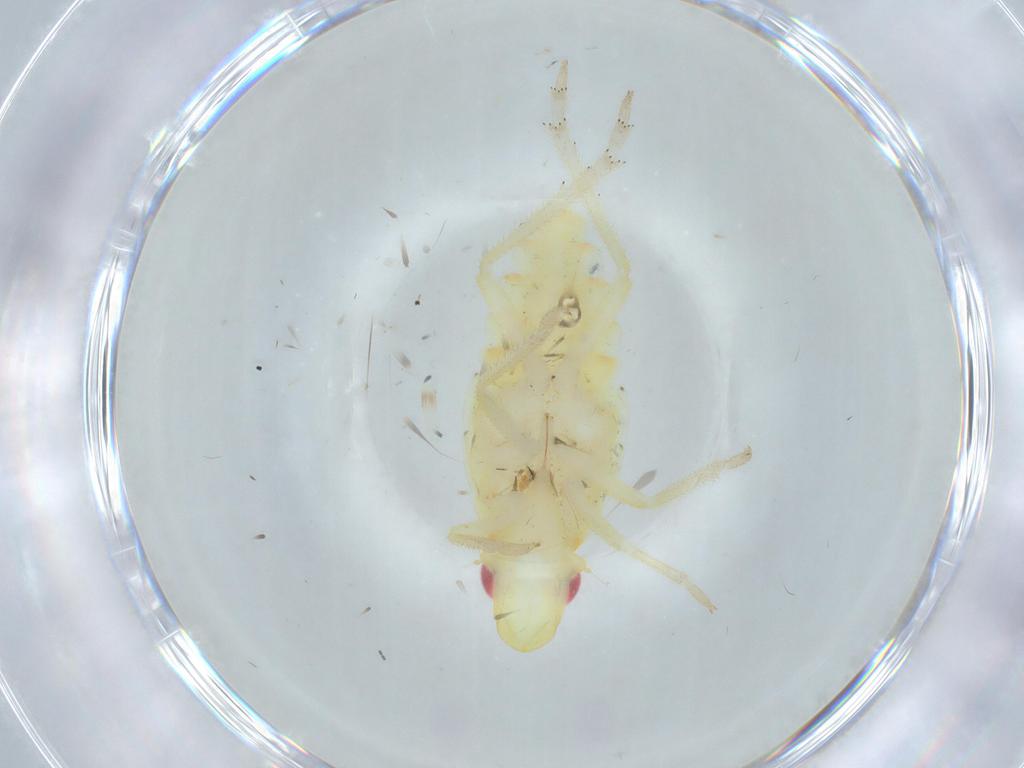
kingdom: Animalia
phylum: Arthropoda
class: Insecta
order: Hemiptera
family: Tropiduchidae
